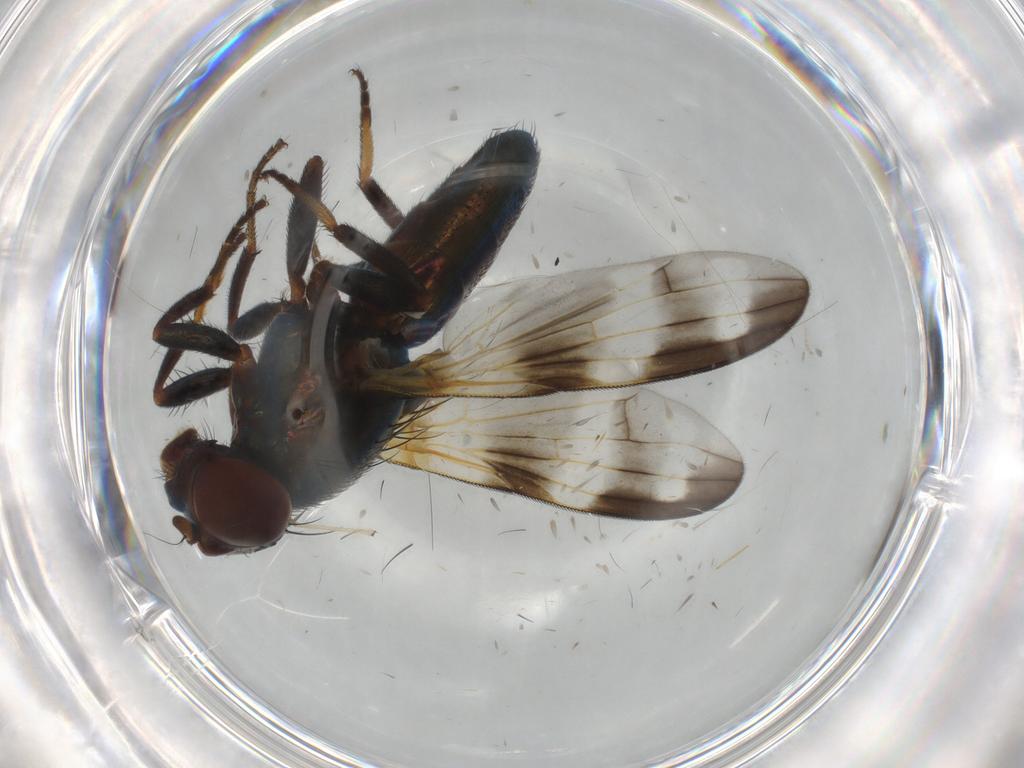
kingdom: Animalia
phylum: Arthropoda
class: Insecta
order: Diptera
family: Ulidiidae
